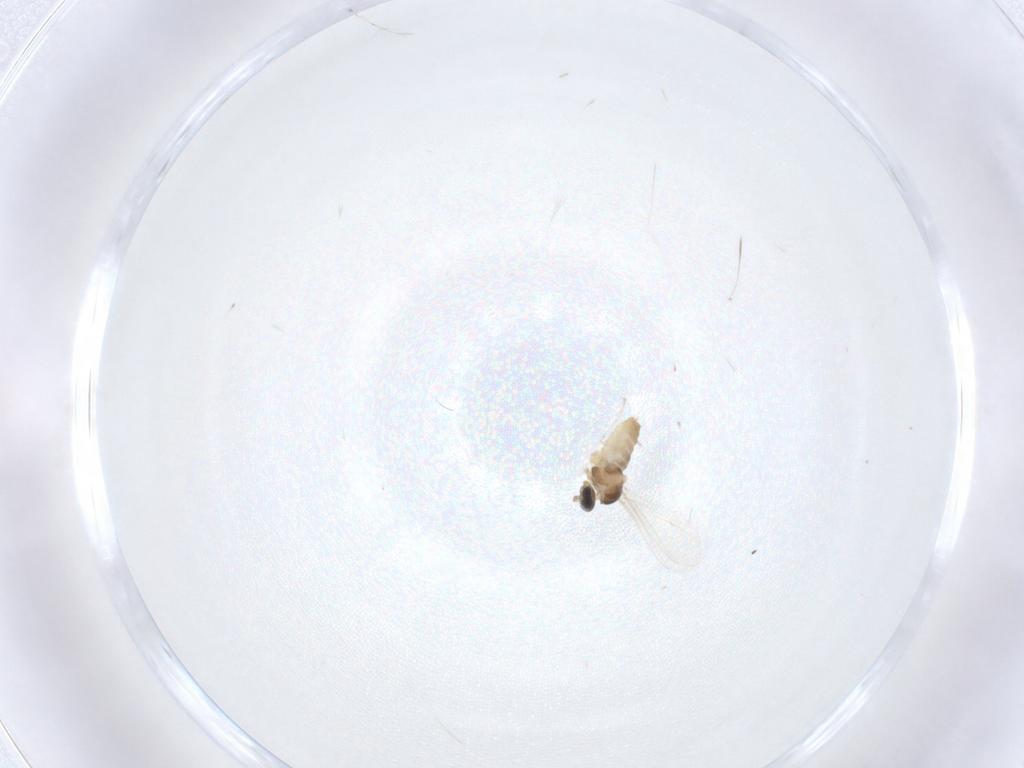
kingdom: Animalia
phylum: Arthropoda
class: Insecta
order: Diptera
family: Cecidomyiidae
